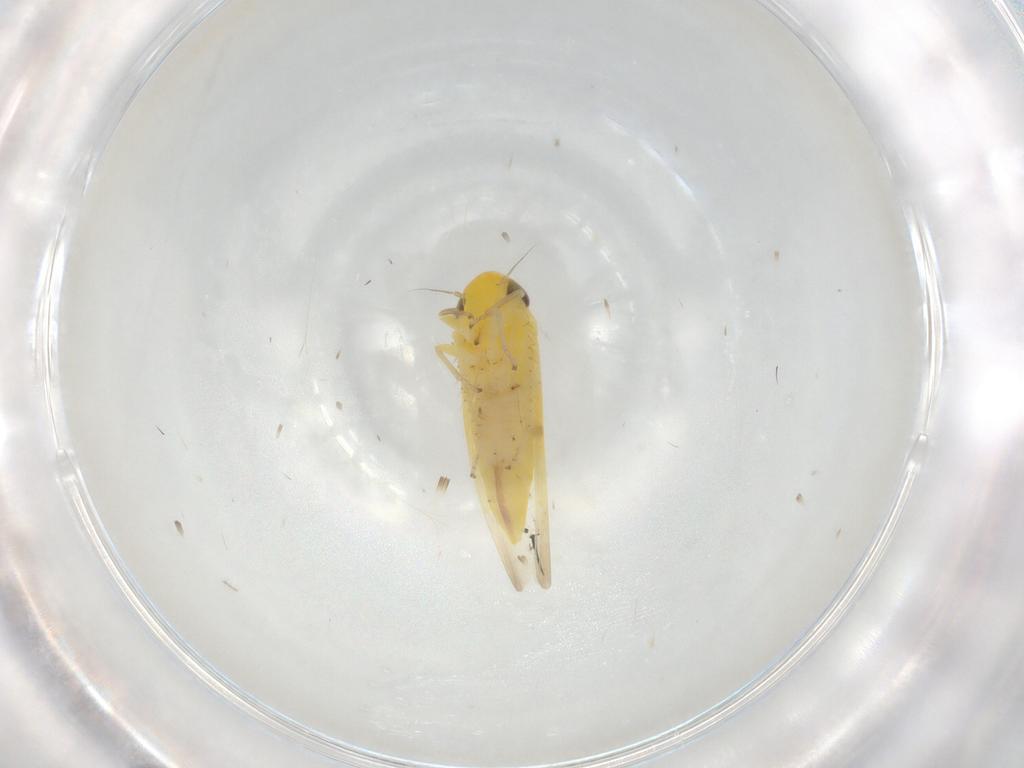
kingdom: Animalia
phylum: Arthropoda
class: Insecta
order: Hemiptera
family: Cicadellidae
